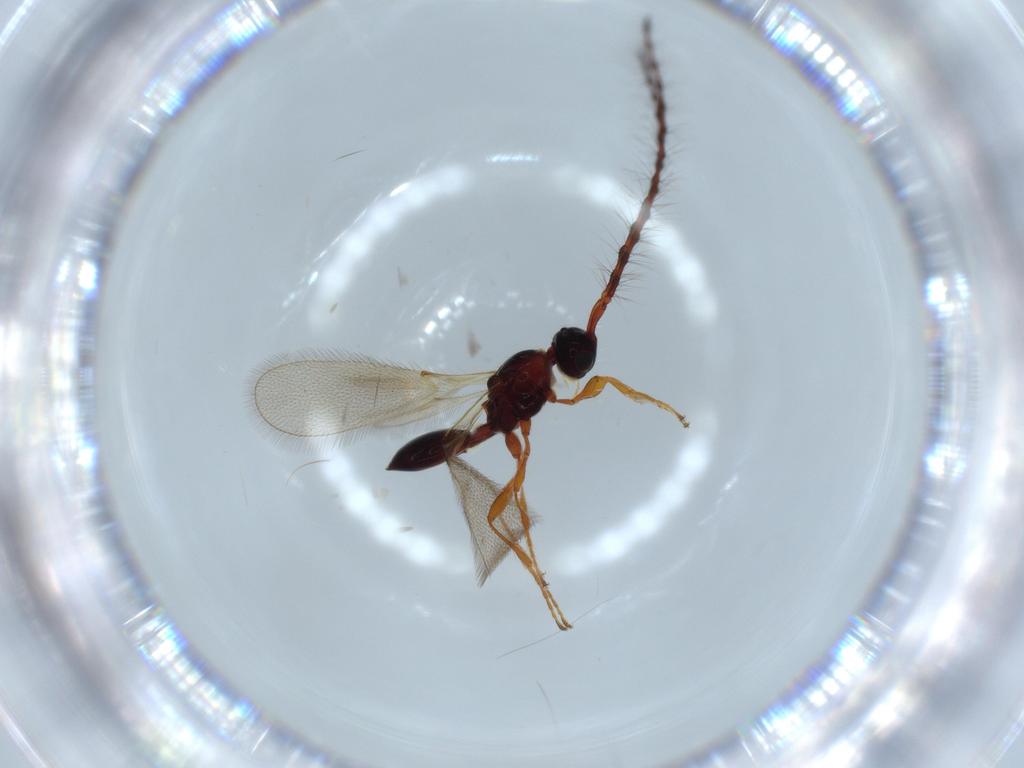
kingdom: Animalia
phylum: Arthropoda
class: Insecta
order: Hymenoptera
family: Diapriidae
